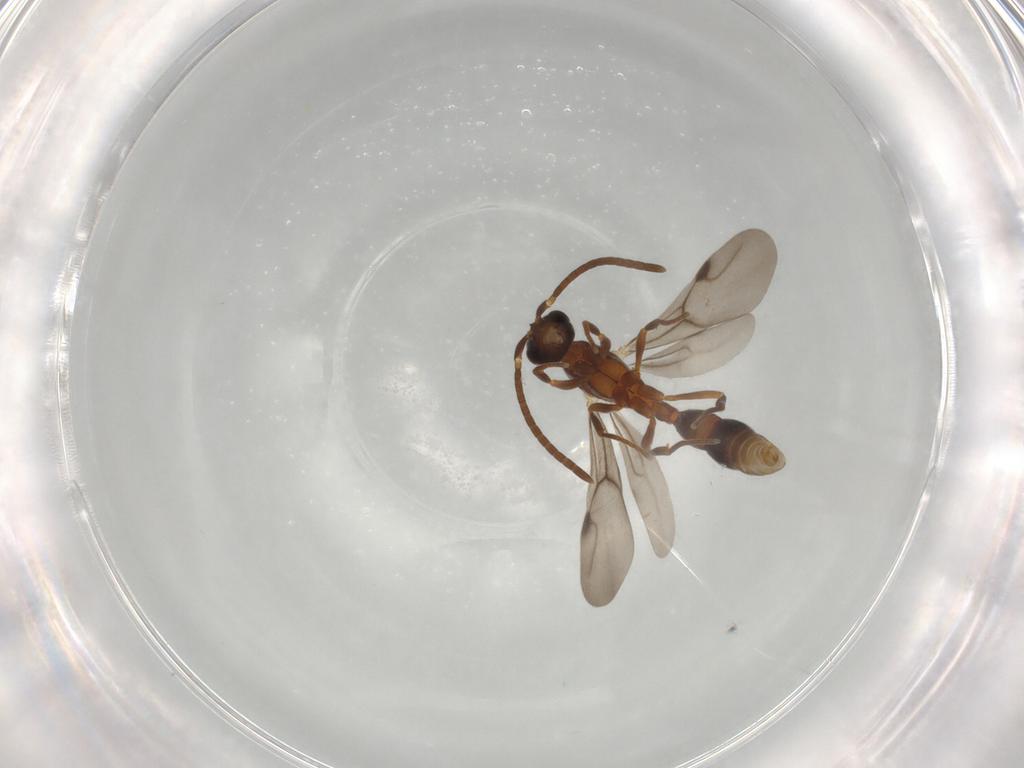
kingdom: Animalia
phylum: Arthropoda
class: Insecta
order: Hymenoptera
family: Formicidae
